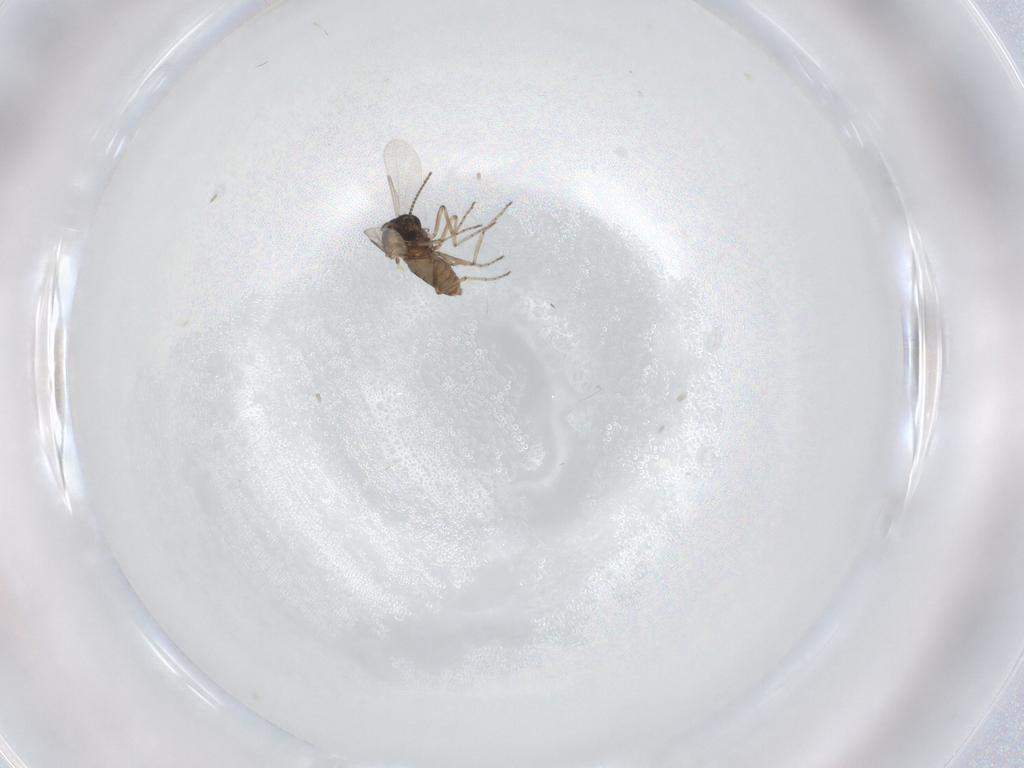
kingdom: Animalia
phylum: Arthropoda
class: Insecta
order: Diptera
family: Ceratopogonidae
